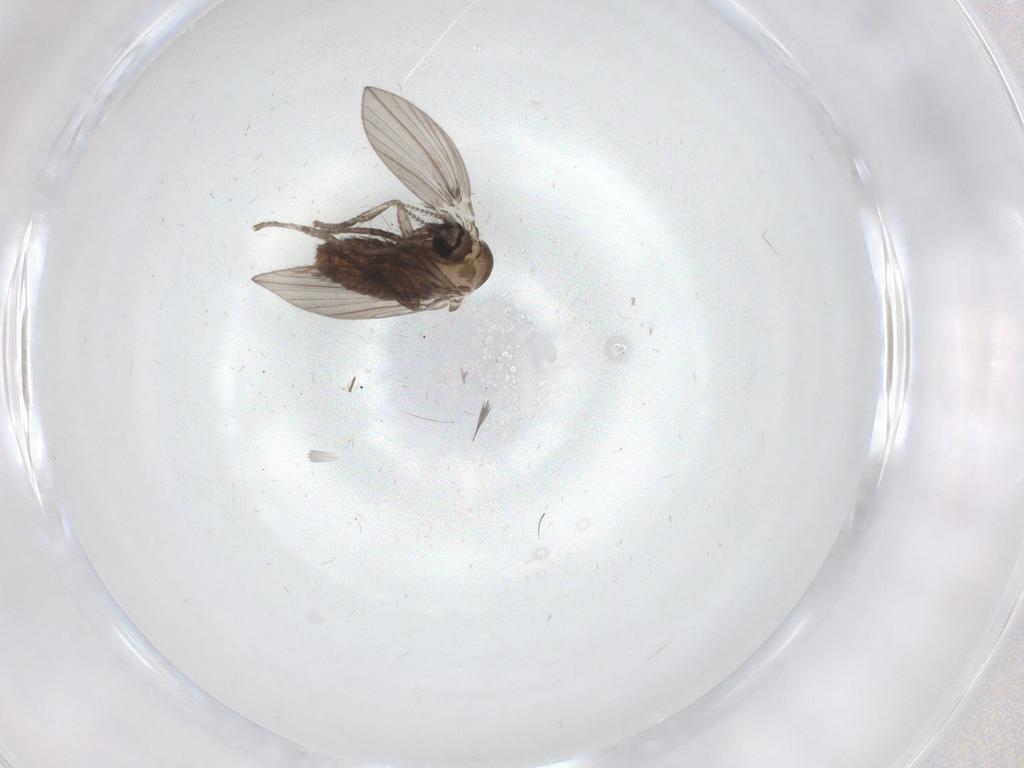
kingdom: Animalia
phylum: Arthropoda
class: Insecta
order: Diptera
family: Psychodidae
